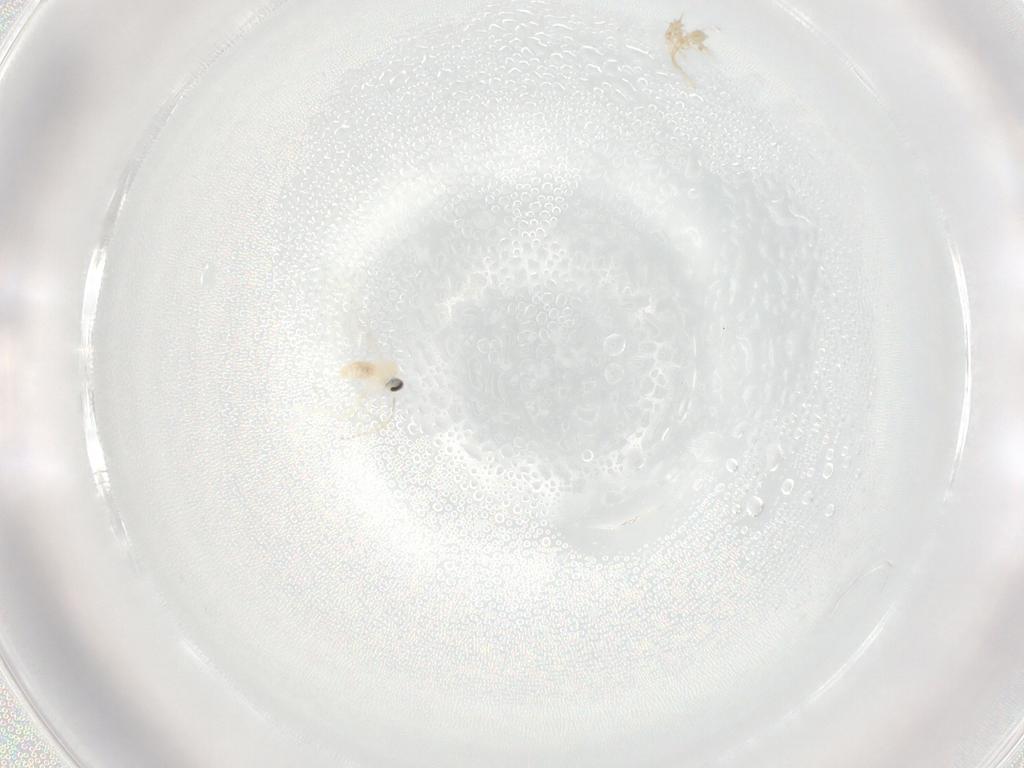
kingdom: Animalia
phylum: Arthropoda
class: Insecta
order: Diptera
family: Cecidomyiidae
